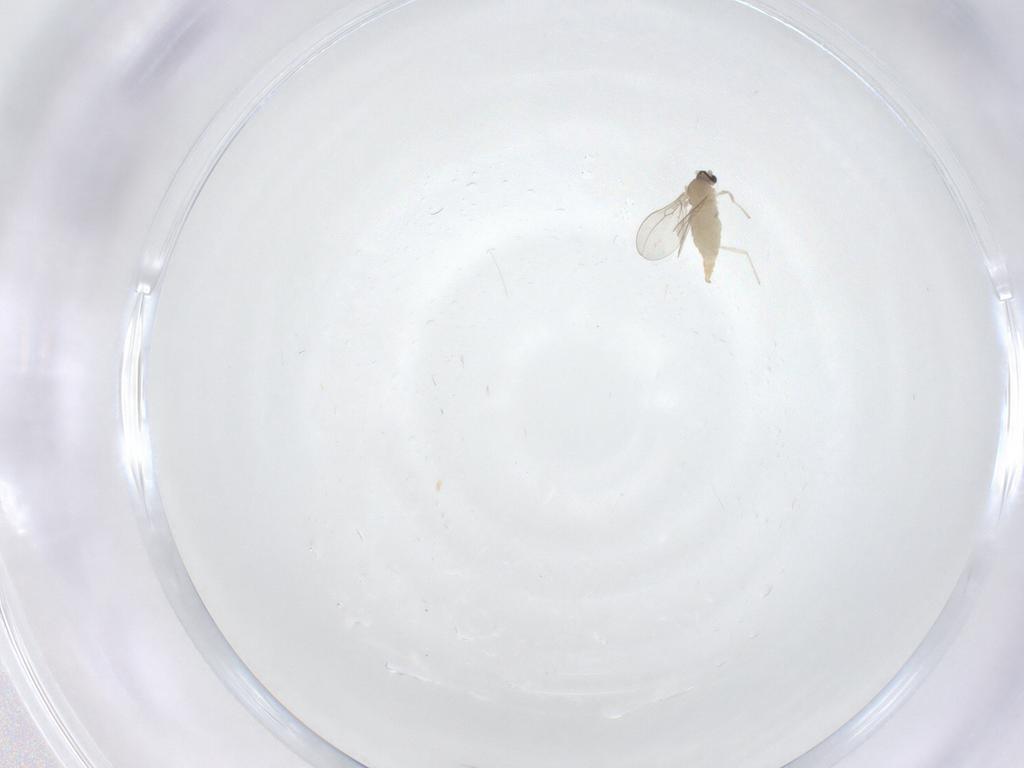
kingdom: Animalia
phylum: Arthropoda
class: Insecta
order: Diptera
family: Cecidomyiidae
